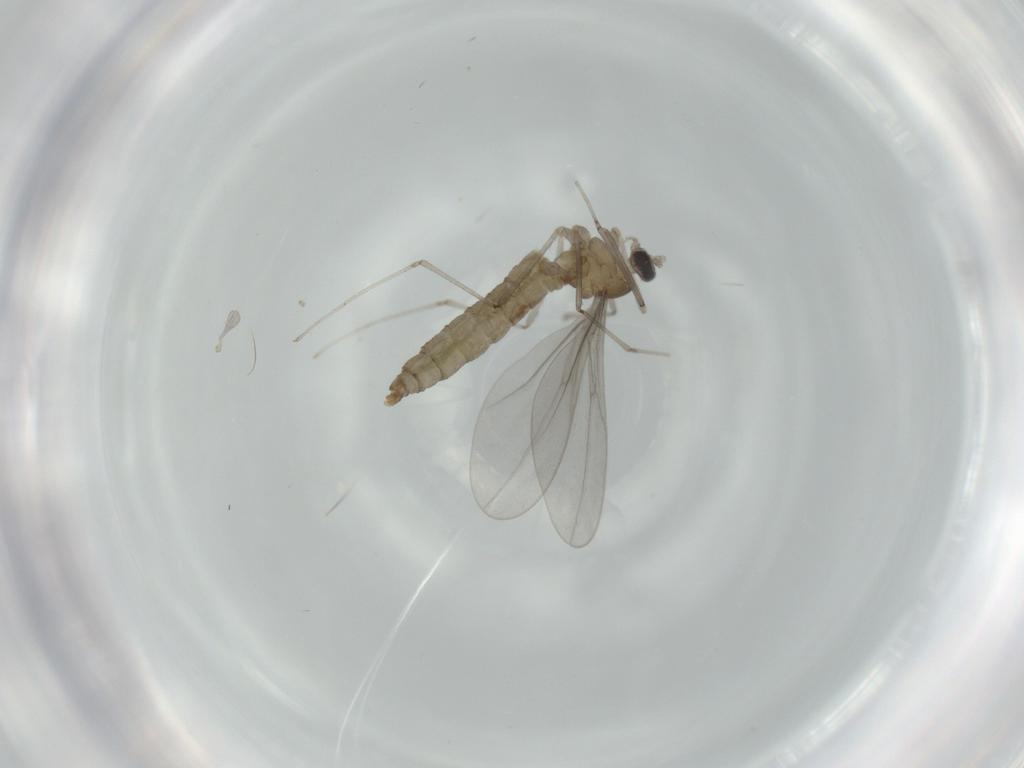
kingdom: Animalia
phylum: Arthropoda
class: Insecta
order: Diptera
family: Cecidomyiidae
